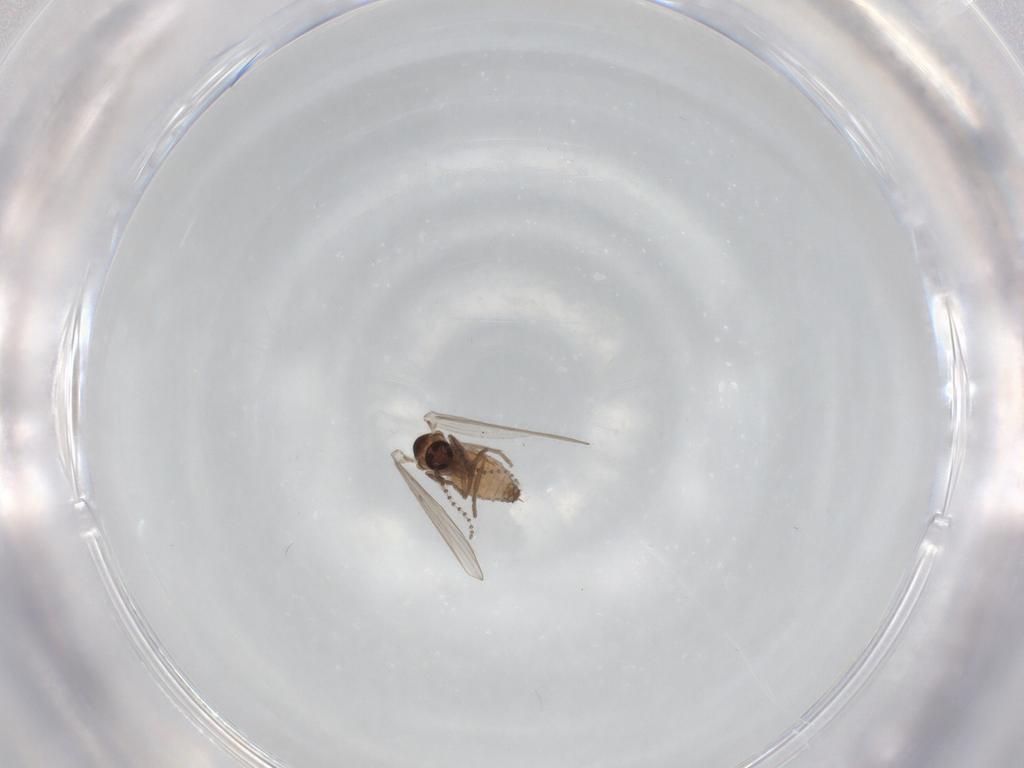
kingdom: Animalia
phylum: Arthropoda
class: Insecta
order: Diptera
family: Psychodidae
